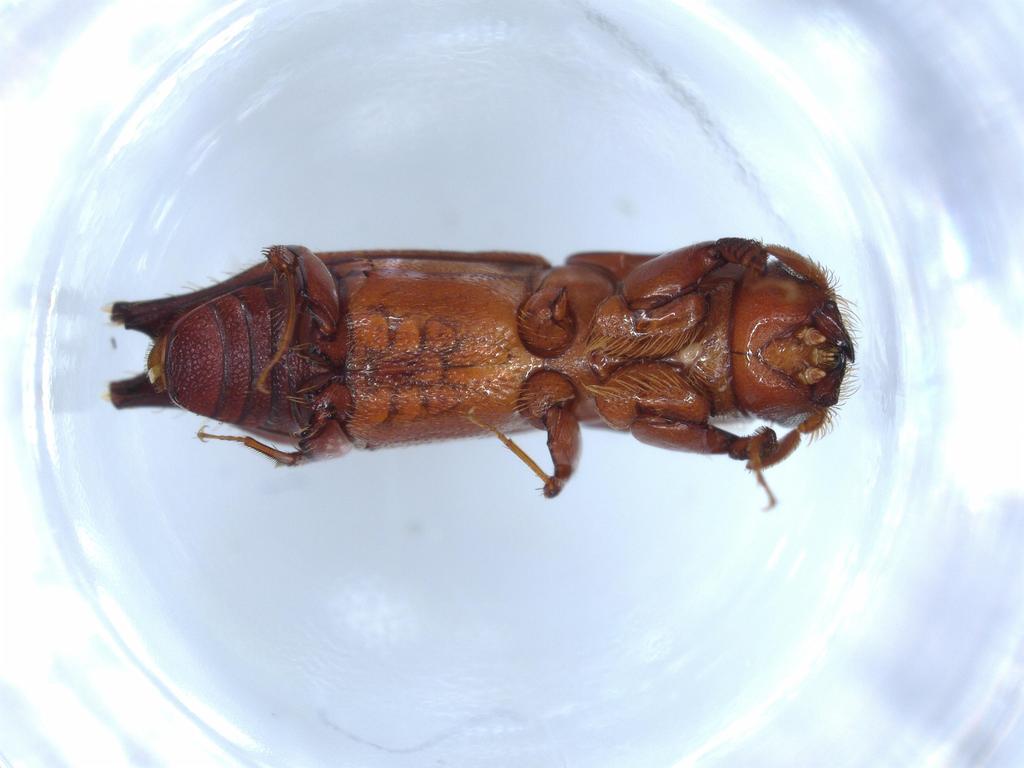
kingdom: Animalia
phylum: Arthropoda
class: Insecta
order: Coleoptera
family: Curculionidae
